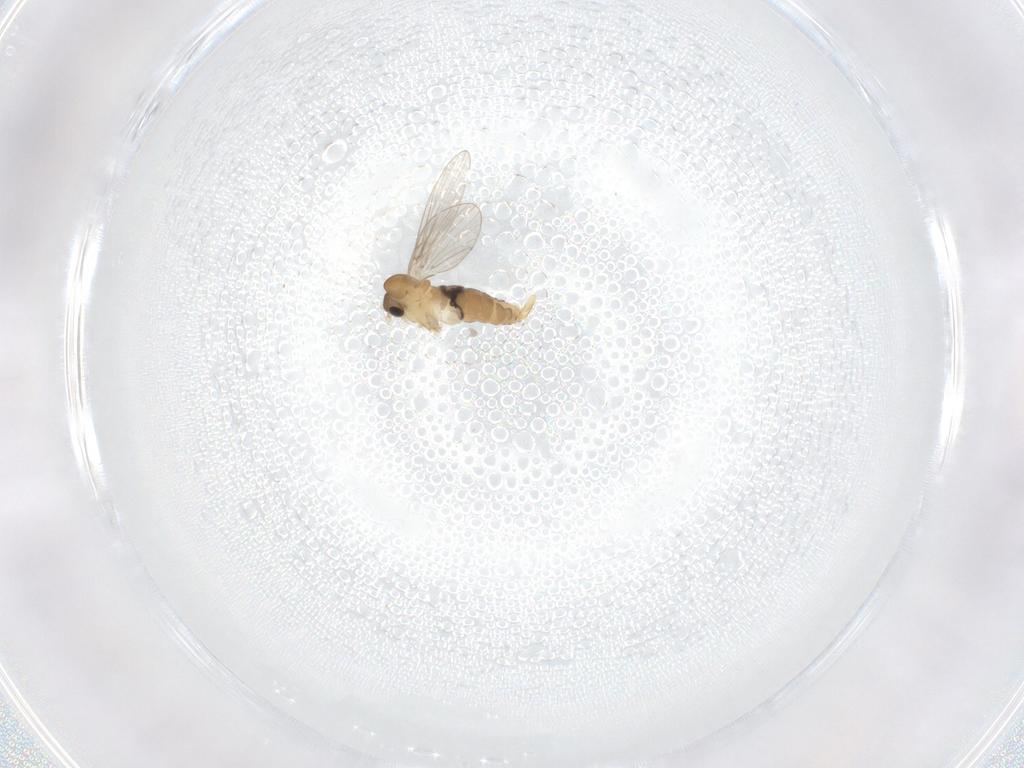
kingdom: Animalia
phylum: Arthropoda
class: Insecta
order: Diptera
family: Psychodidae
